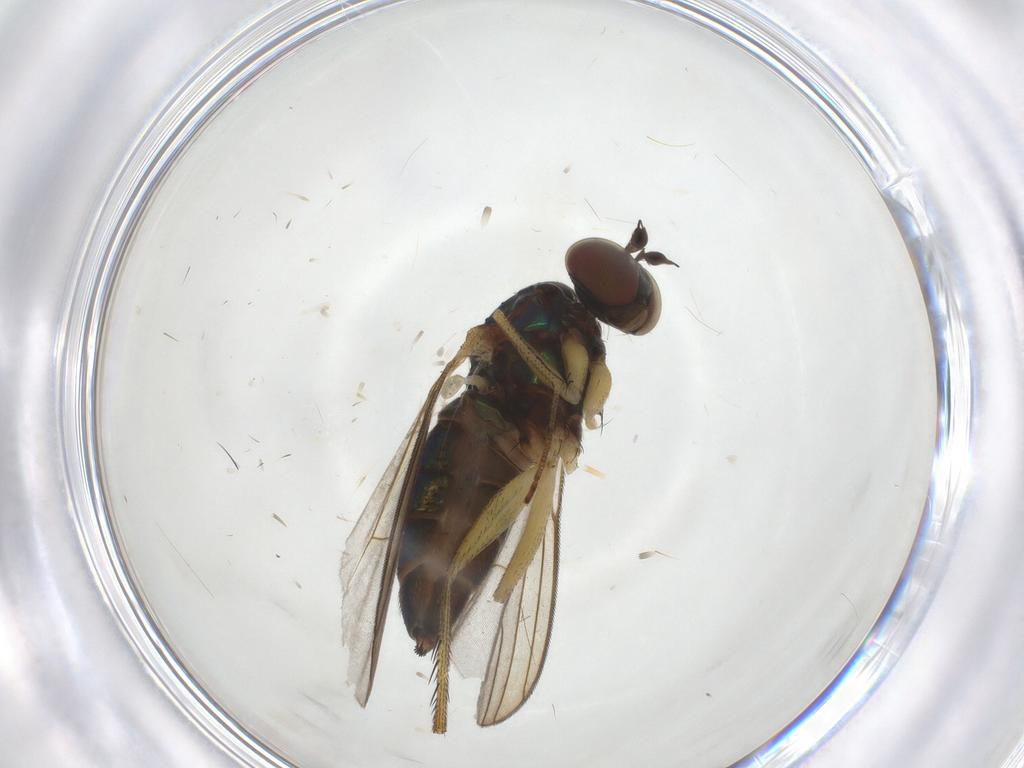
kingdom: Animalia
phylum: Arthropoda
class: Insecta
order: Diptera
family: Dolichopodidae
